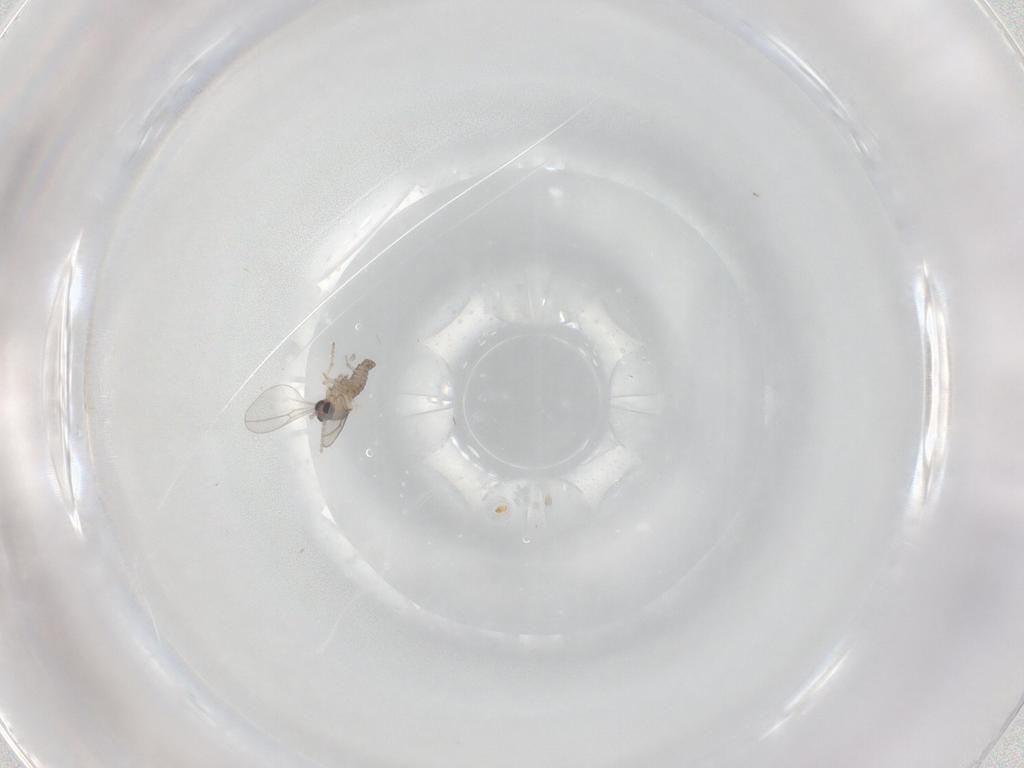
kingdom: Animalia
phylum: Arthropoda
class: Insecta
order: Diptera
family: Cecidomyiidae
